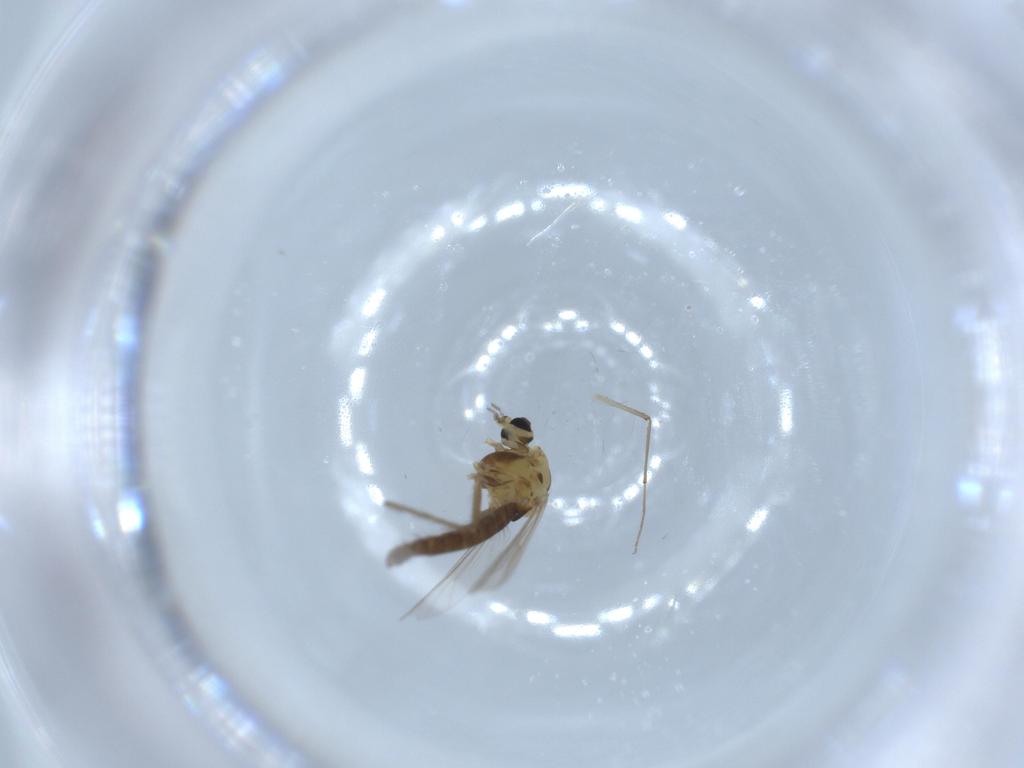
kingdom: Animalia
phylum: Arthropoda
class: Insecta
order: Diptera
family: Chironomidae
